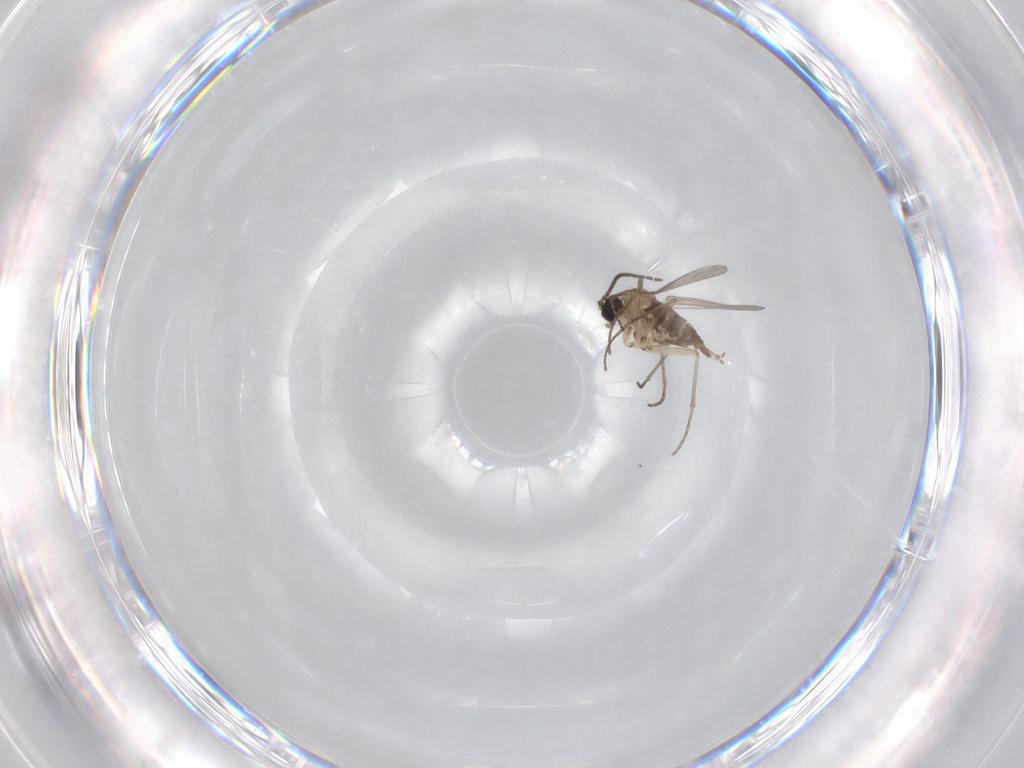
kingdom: Animalia
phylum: Arthropoda
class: Insecta
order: Diptera
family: Sciaridae
